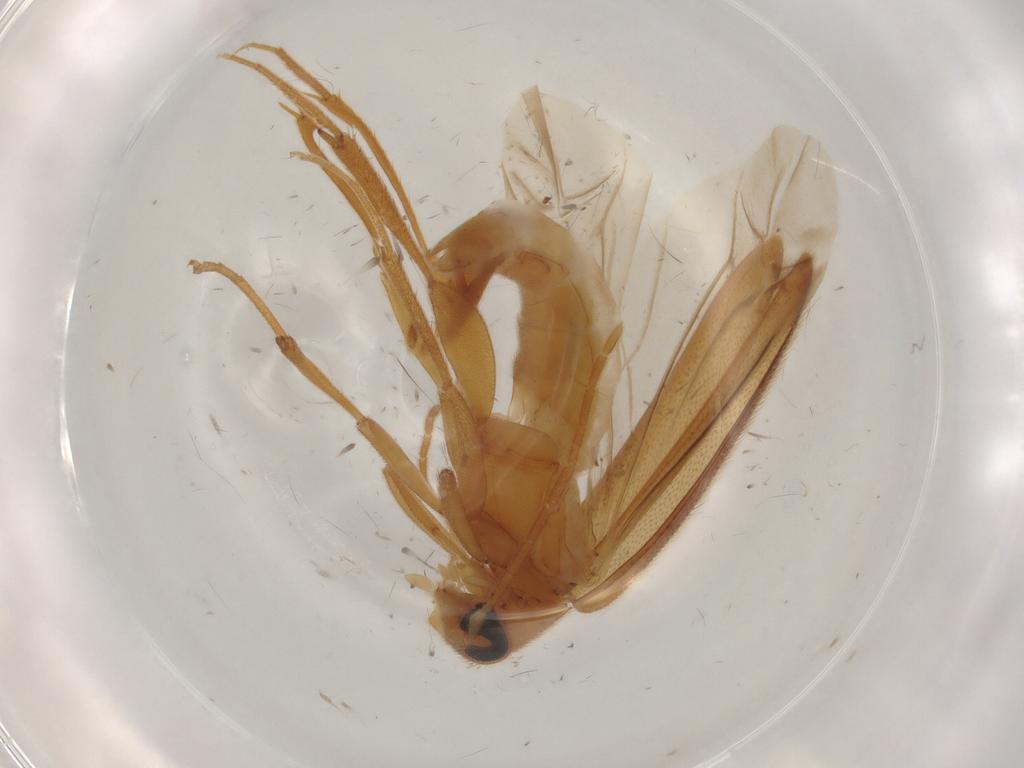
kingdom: Animalia
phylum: Arthropoda
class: Insecta
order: Coleoptera
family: Scraptiidae
